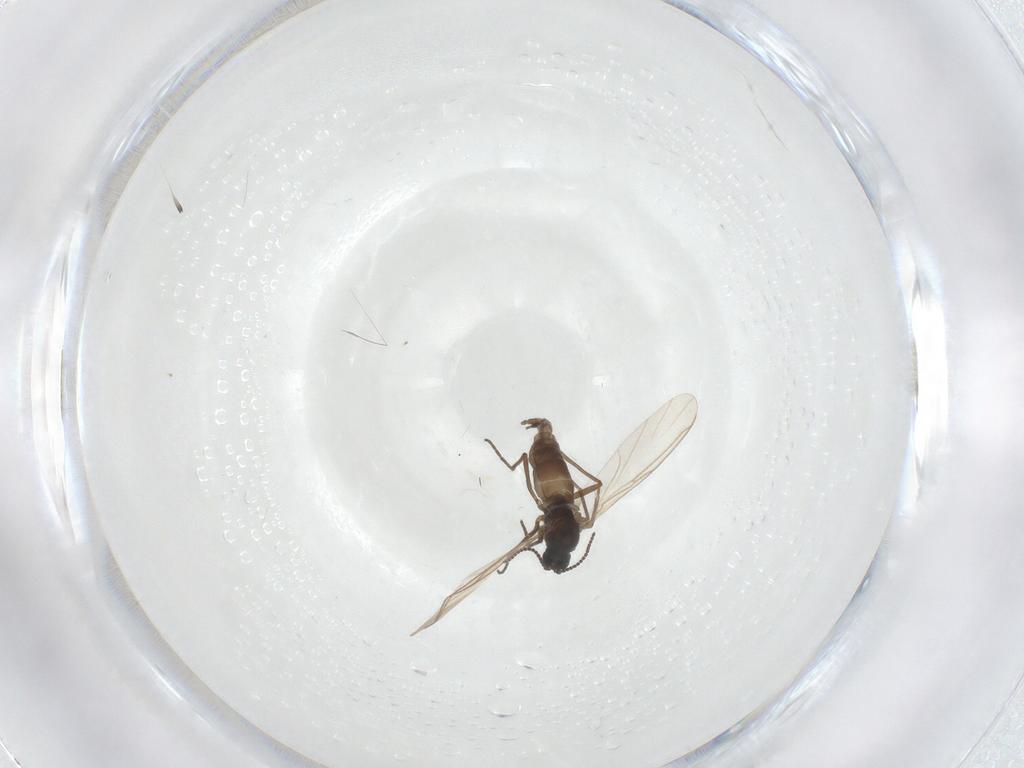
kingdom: Animalia
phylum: Arthropoda
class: Insecta
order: Diptera
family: Sciaridae
